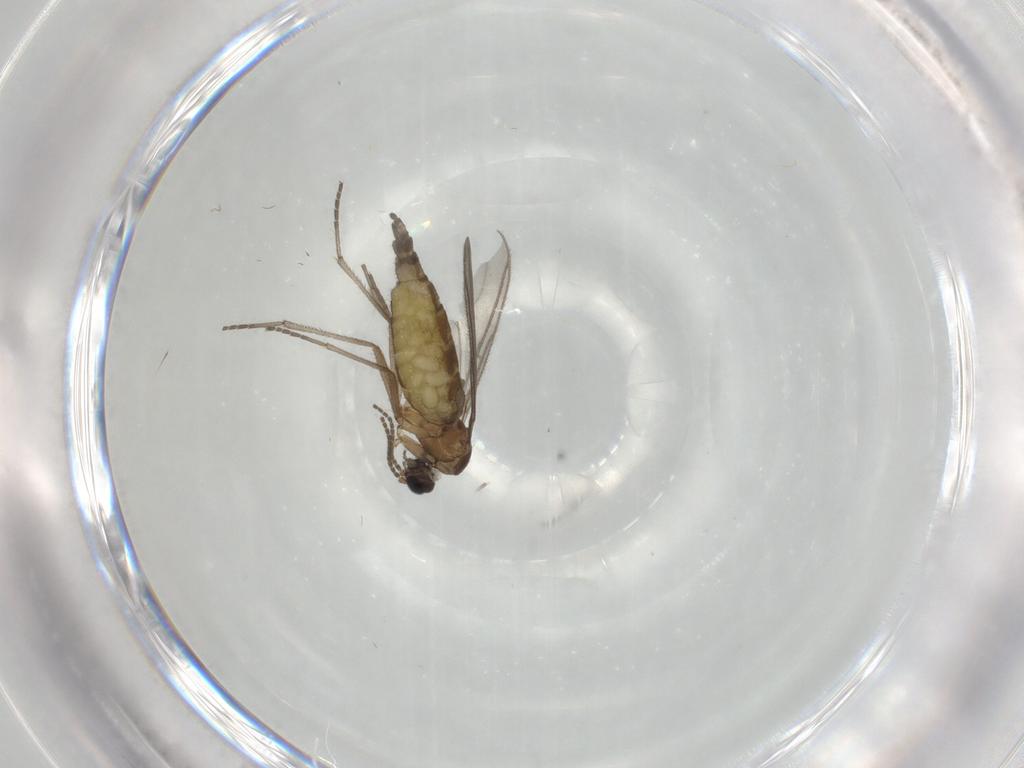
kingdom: Animalia
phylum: Arthropoda
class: Insecta
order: Diptera
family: Sciaridae
